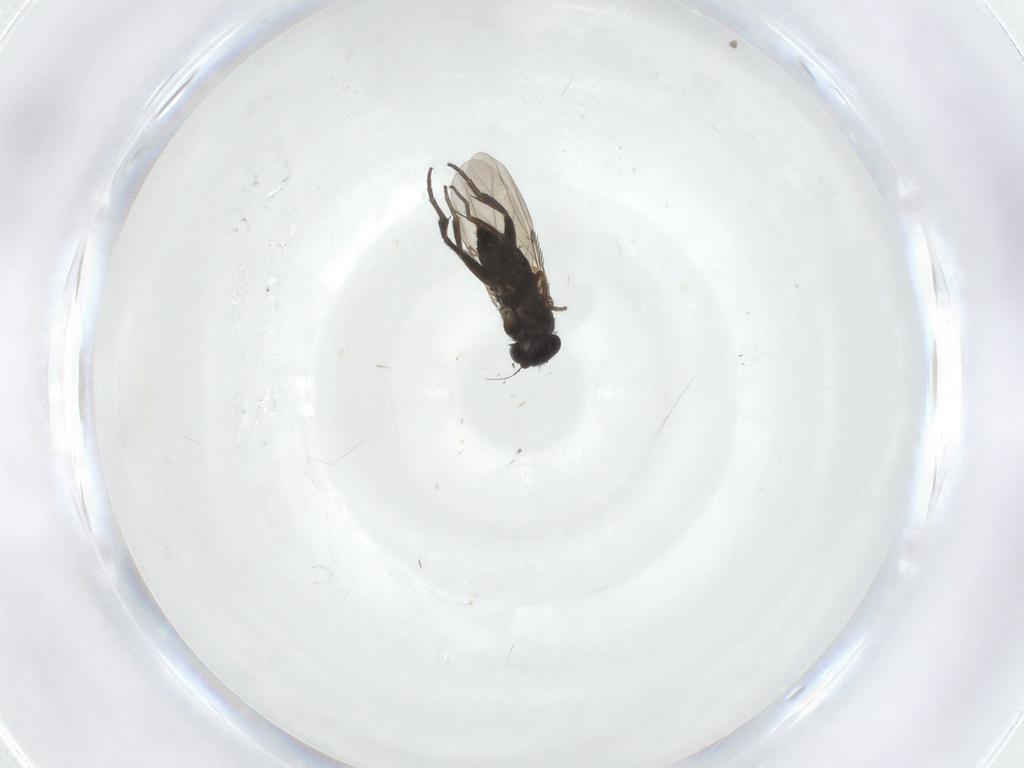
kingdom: Animalia
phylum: Arthropoda
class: Insecta
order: Diptera
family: Phoridae
